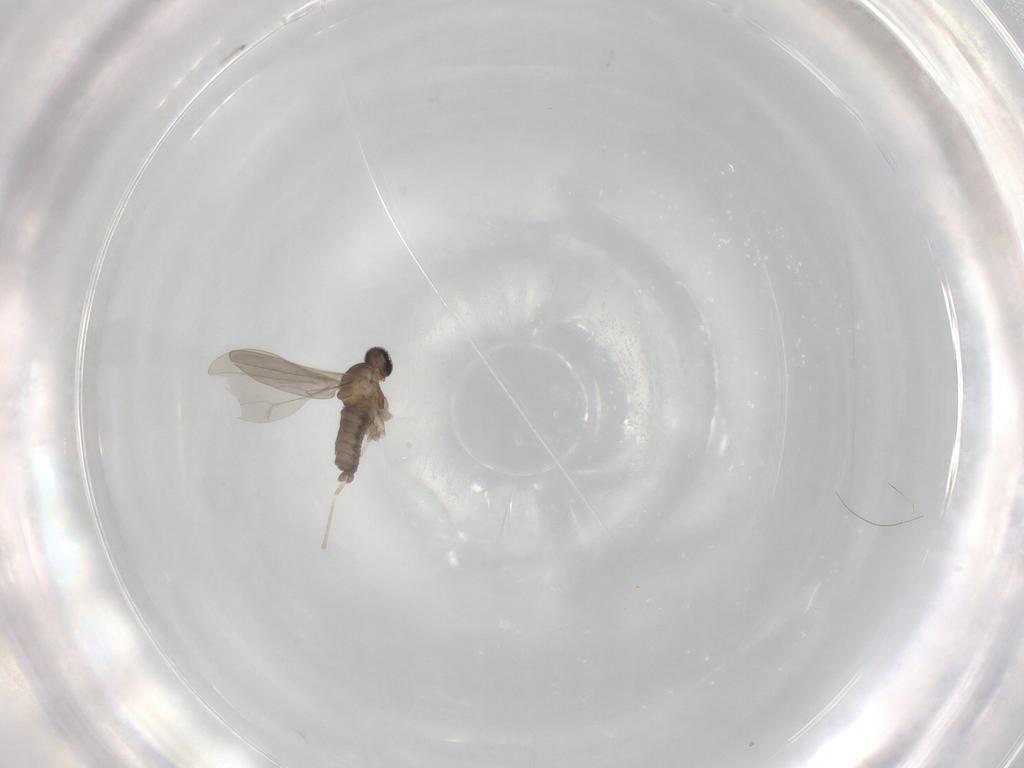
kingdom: Animalia
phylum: Arthropoda
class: Insecta
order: Diptera
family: Cecidomyiidae
